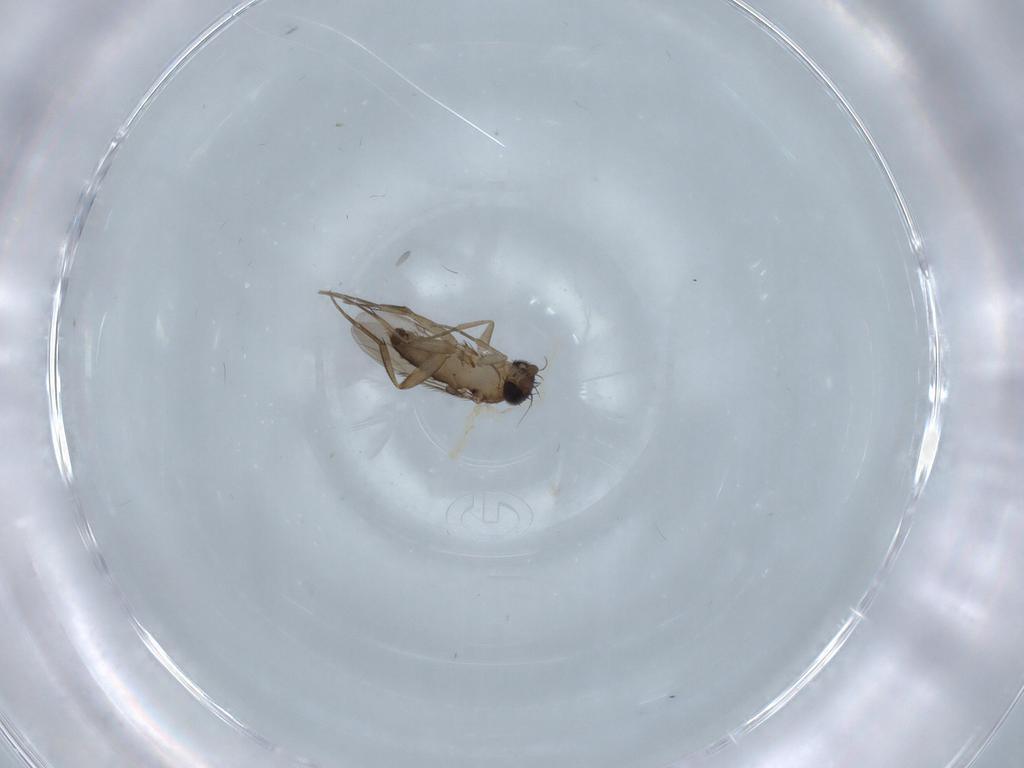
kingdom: Animalia
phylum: Arthropoda
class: Insecta
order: Diptera
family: Phoridae
